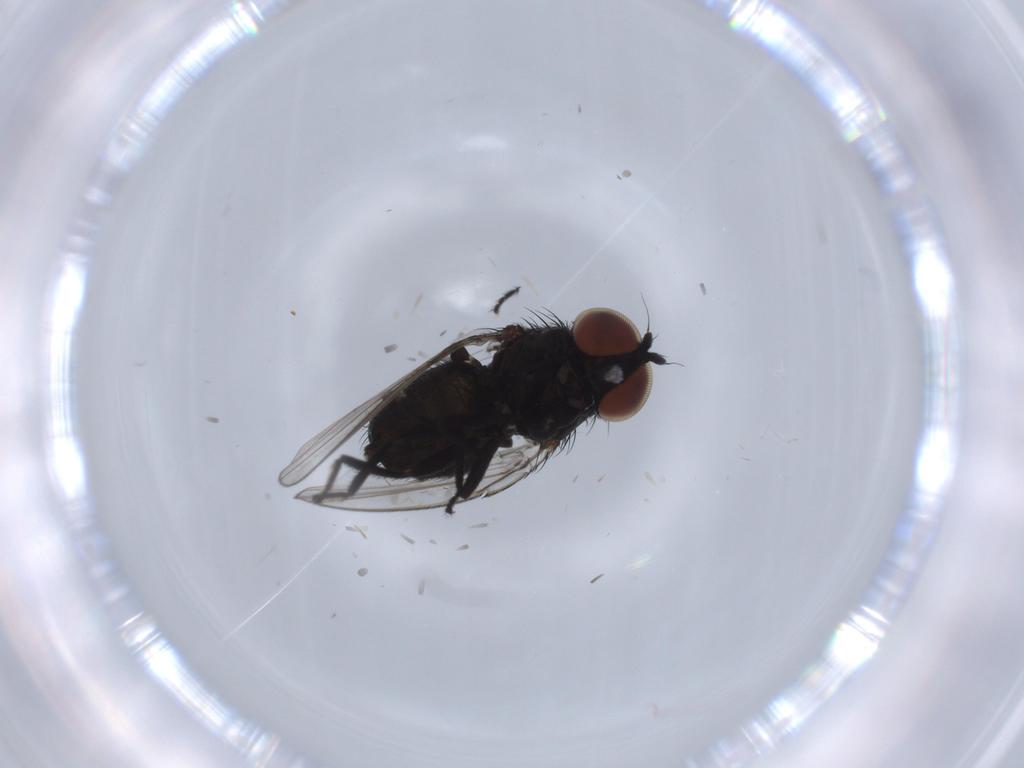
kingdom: Animalia
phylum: Arthropoda
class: Insecta
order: Diptera
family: Milichiidae
